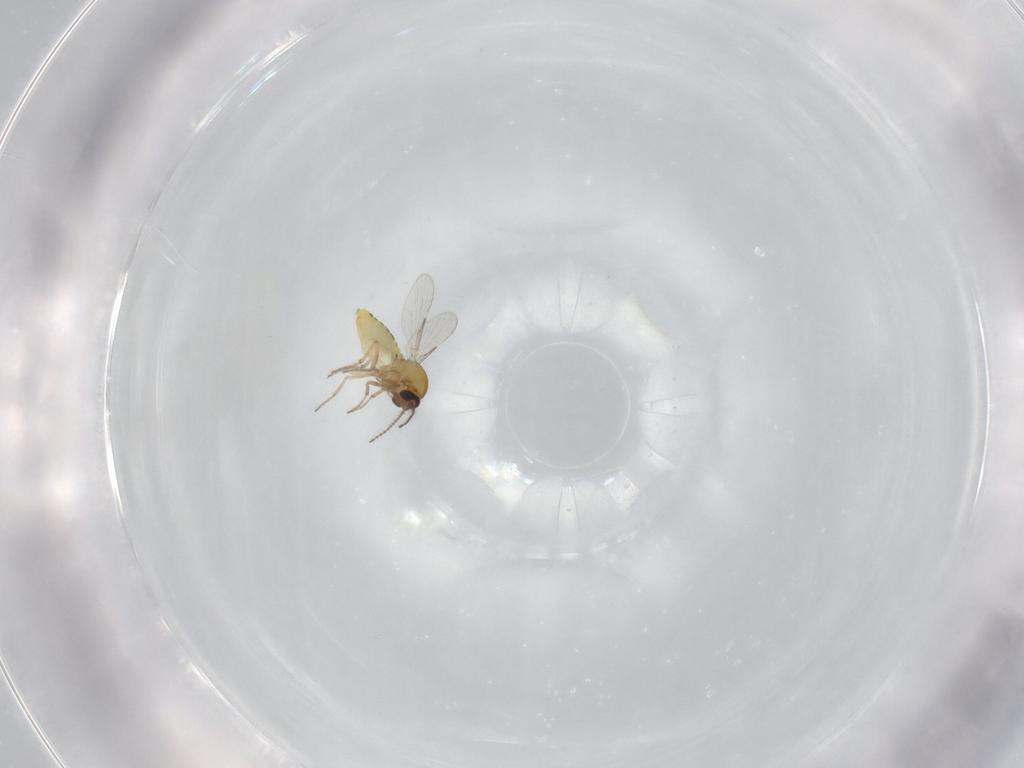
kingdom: Animalia
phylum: Arthropoda
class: Insecta
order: Diptera
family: Ceratopogonidae
